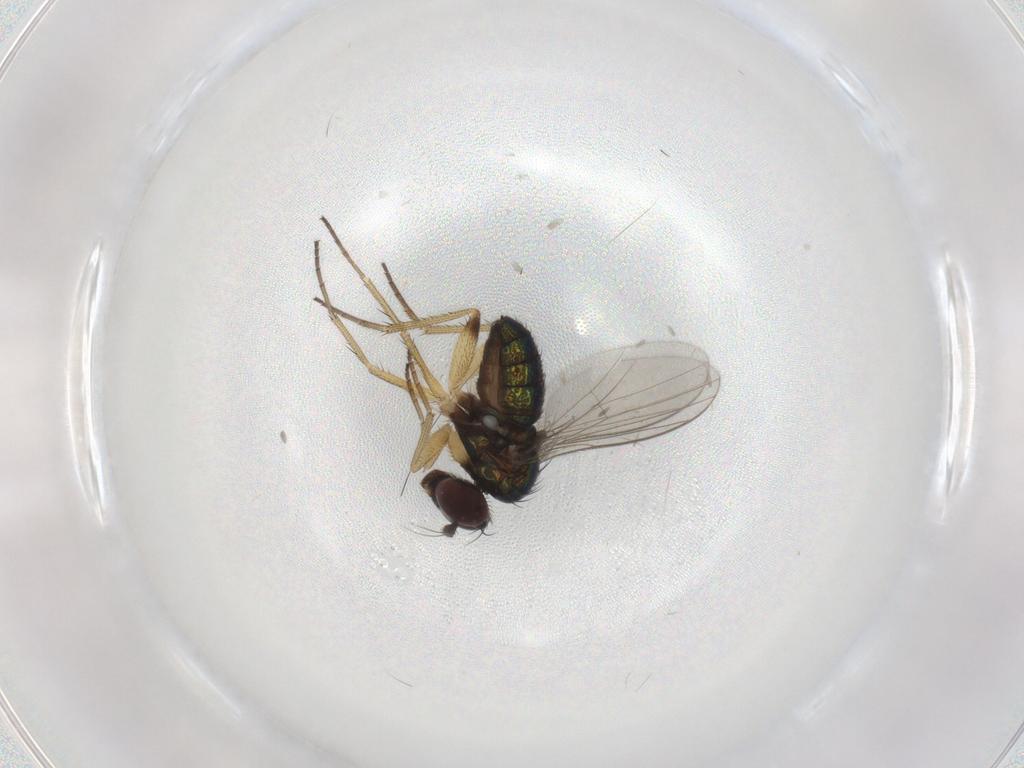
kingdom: Animalia
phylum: Arthropoda
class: Insecta
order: Diptera
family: Chironomidae
